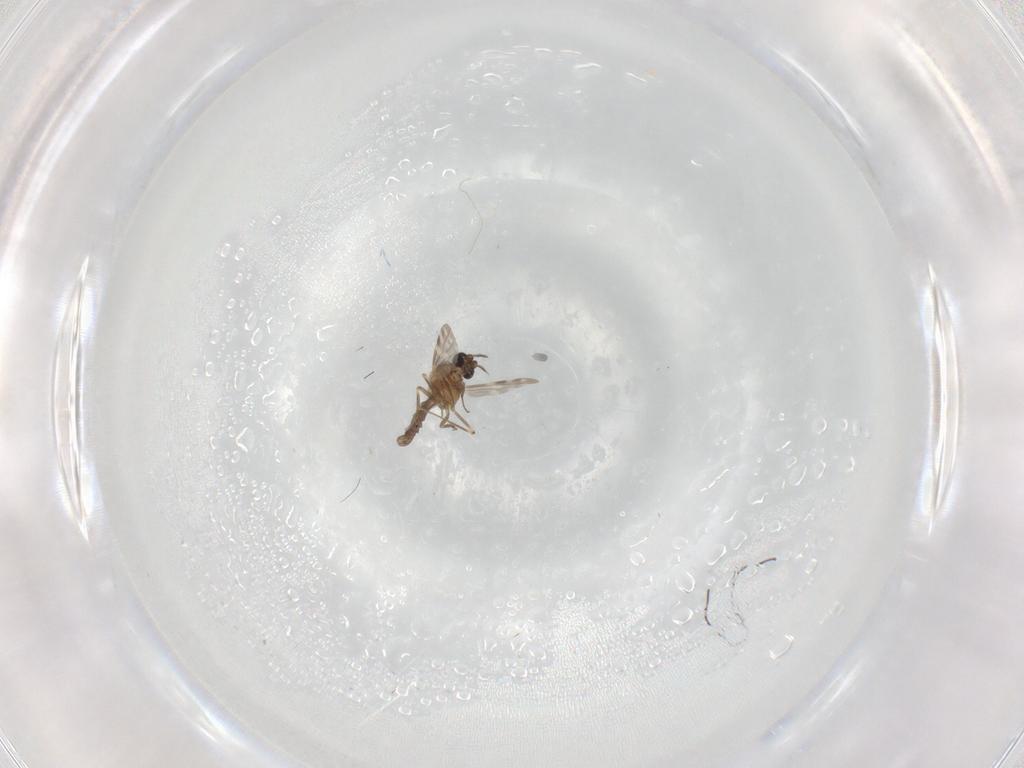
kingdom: Animalia
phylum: Arthropoda
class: Insecta
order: Diptera
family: Cecidomyiidae
